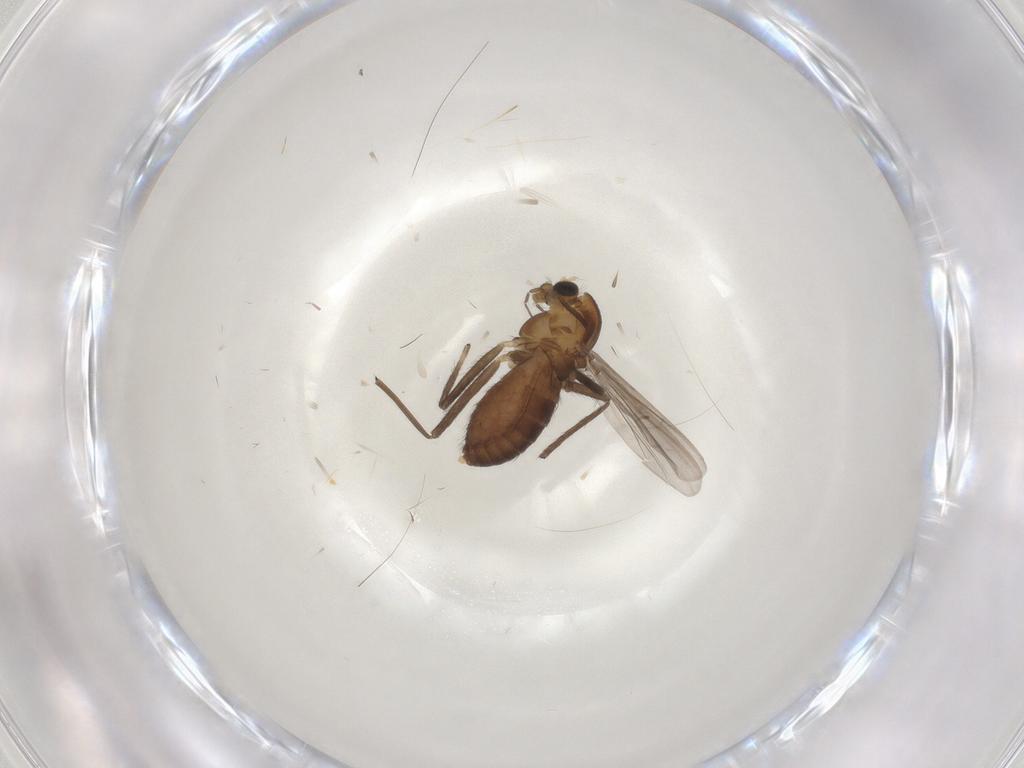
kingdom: Animalia
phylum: Arthropoda
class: Insecta
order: Diptera
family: Chironomidae
